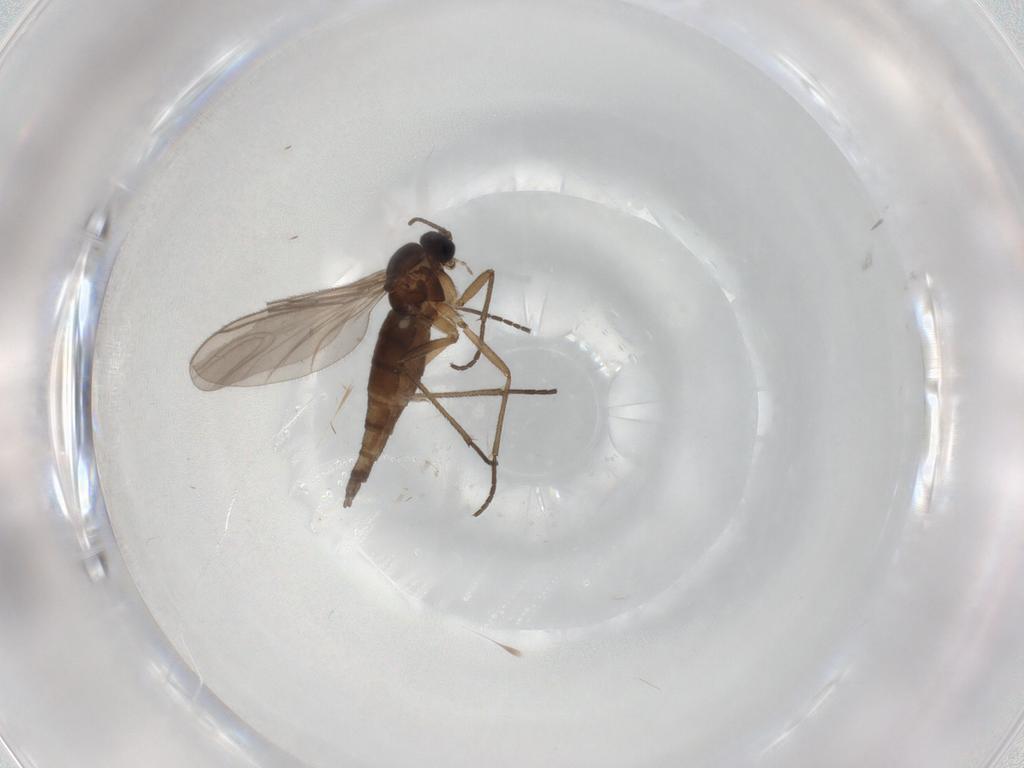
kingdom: Animalia
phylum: Arthropoda
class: Insecta
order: Diptera
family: Sciaridae
